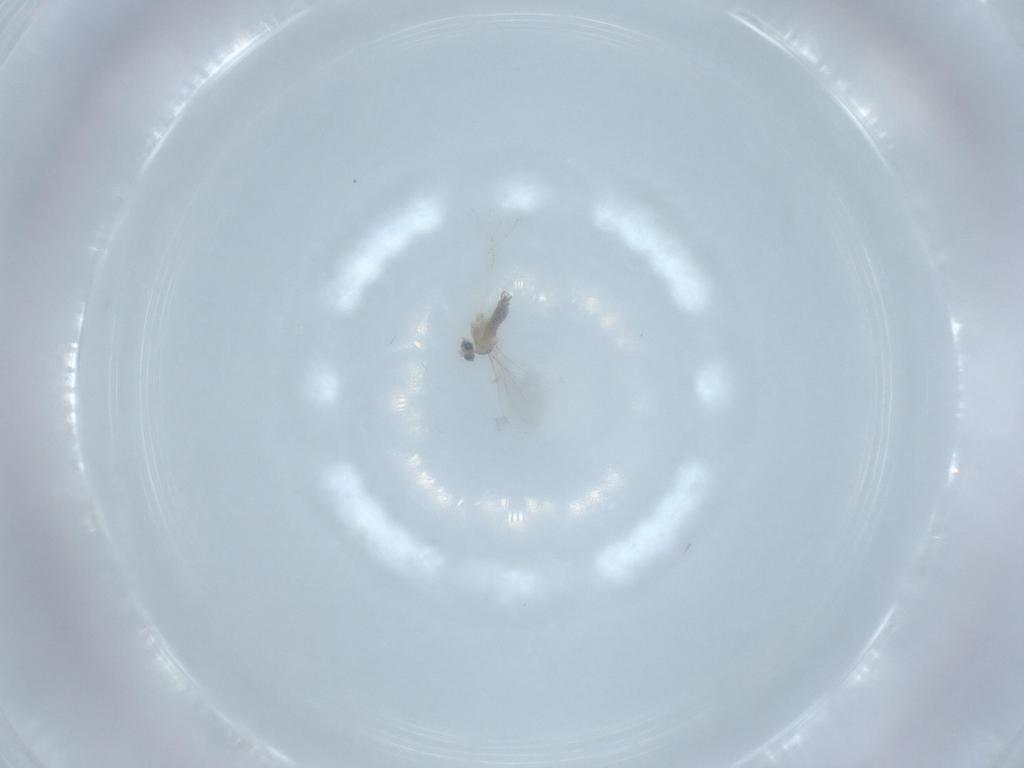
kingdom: Animalia
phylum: Arthropoda
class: Insecta
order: Diptera
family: Cecidomyiidae
